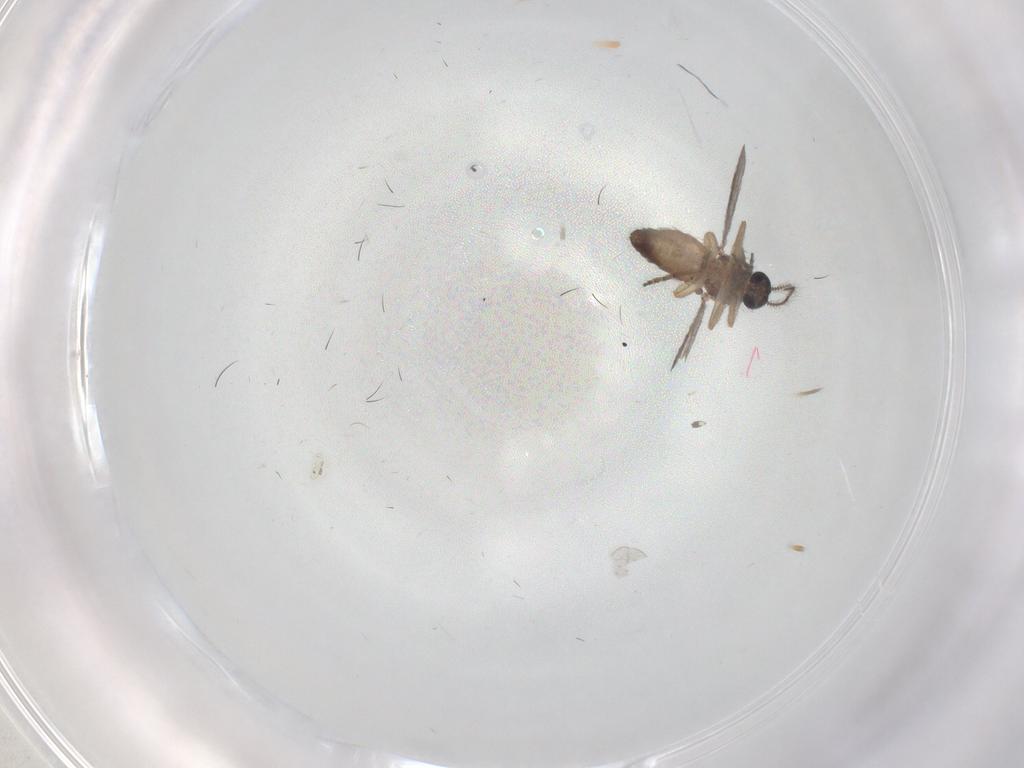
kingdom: Animalia
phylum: Arthropoda
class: Insecta
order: Diptera
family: Ceratopogonidae
